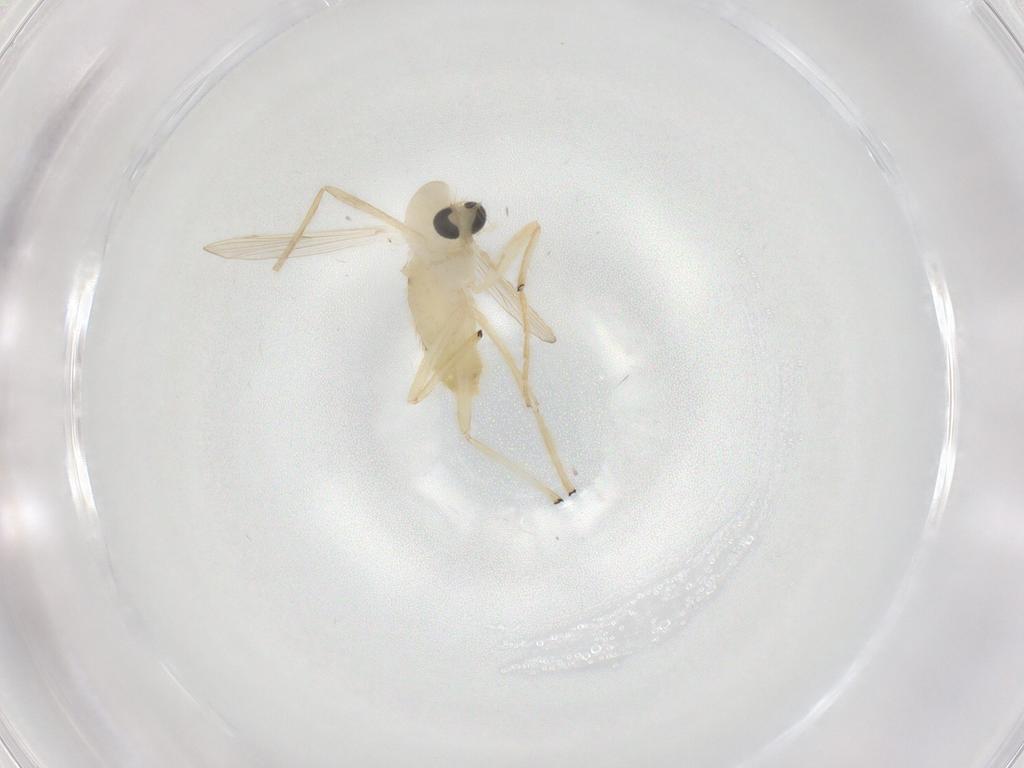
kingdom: Animalia
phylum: Arthropoda
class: Insecta
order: Diptera
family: Chironomidae
